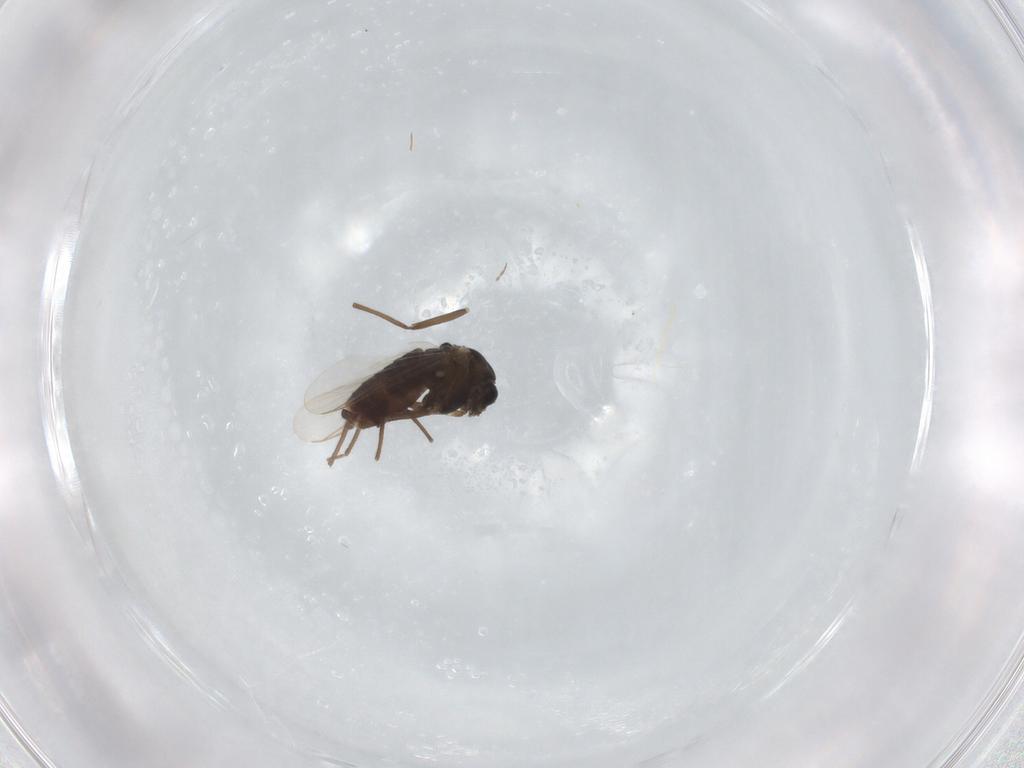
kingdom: Animalia
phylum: Arthropoda
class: Insecta
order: Diptera
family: Chironomidae
